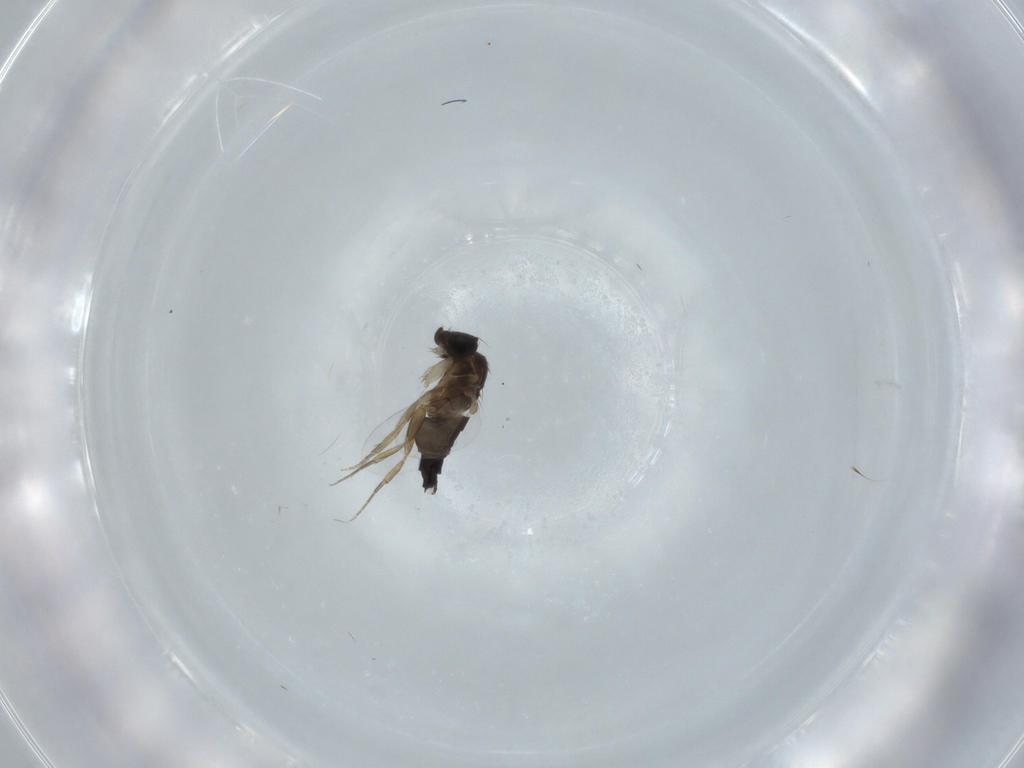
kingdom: Animalia
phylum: Arthropoda
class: Insecta
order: Diptera
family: Phoridae
